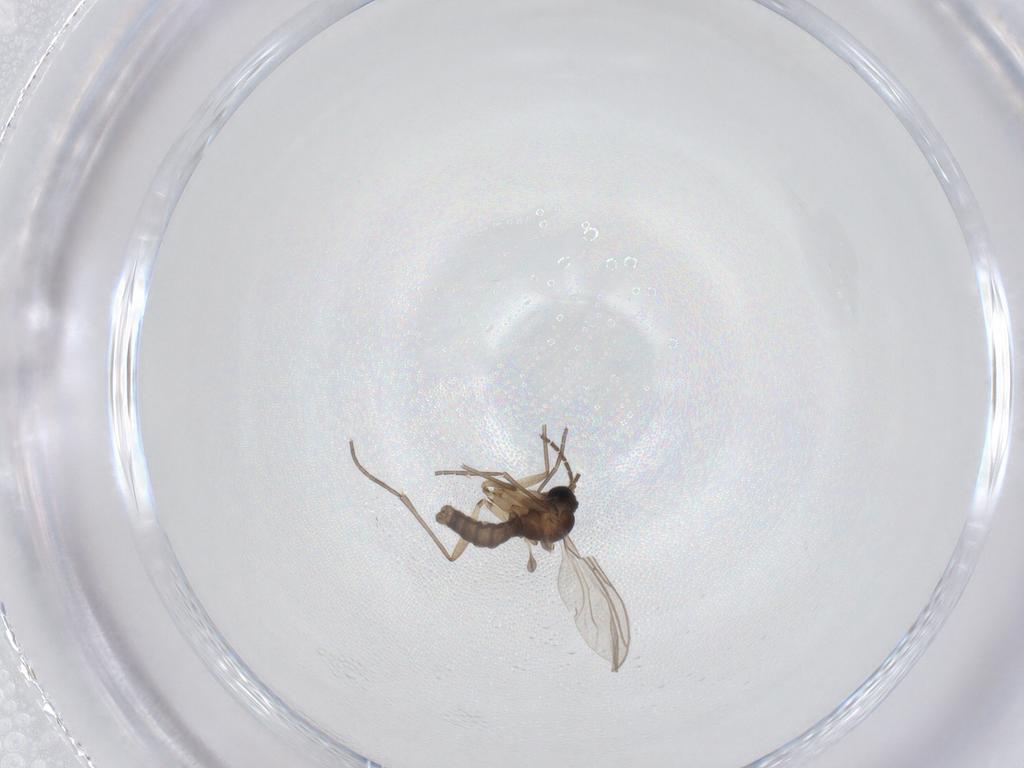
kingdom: Animalia
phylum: Arthropoda
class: Insecta
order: Diptera
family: Sciaridae
